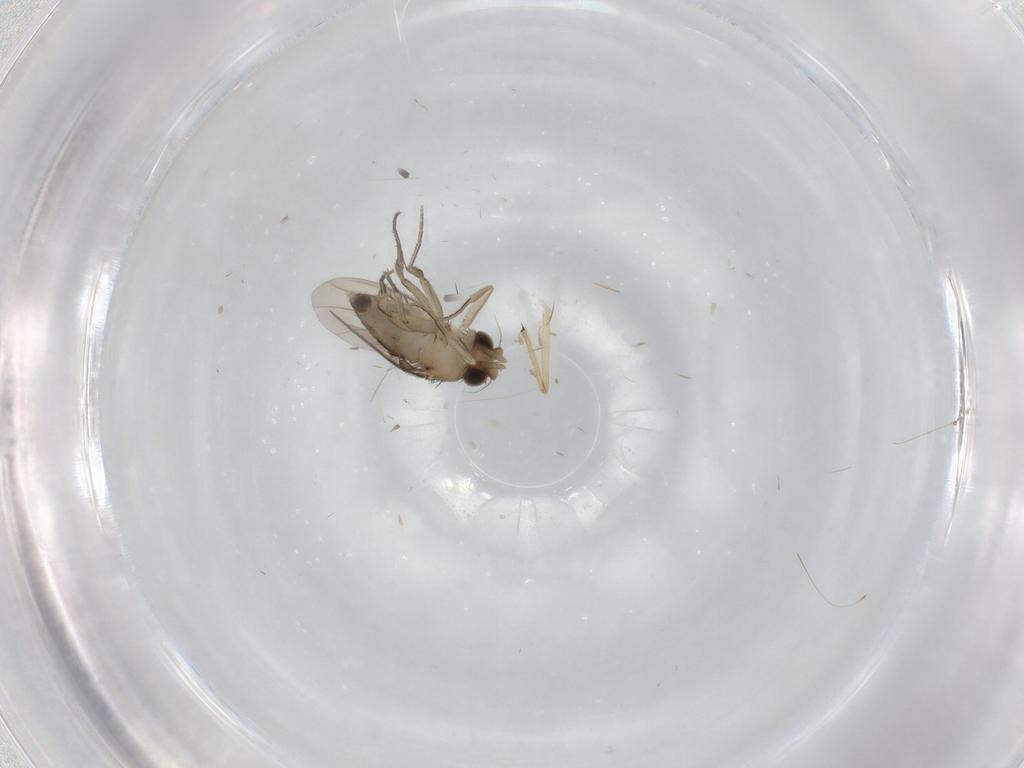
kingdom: Animalia
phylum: Arthropoda
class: Insecta
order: Diptera
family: Phoridae
